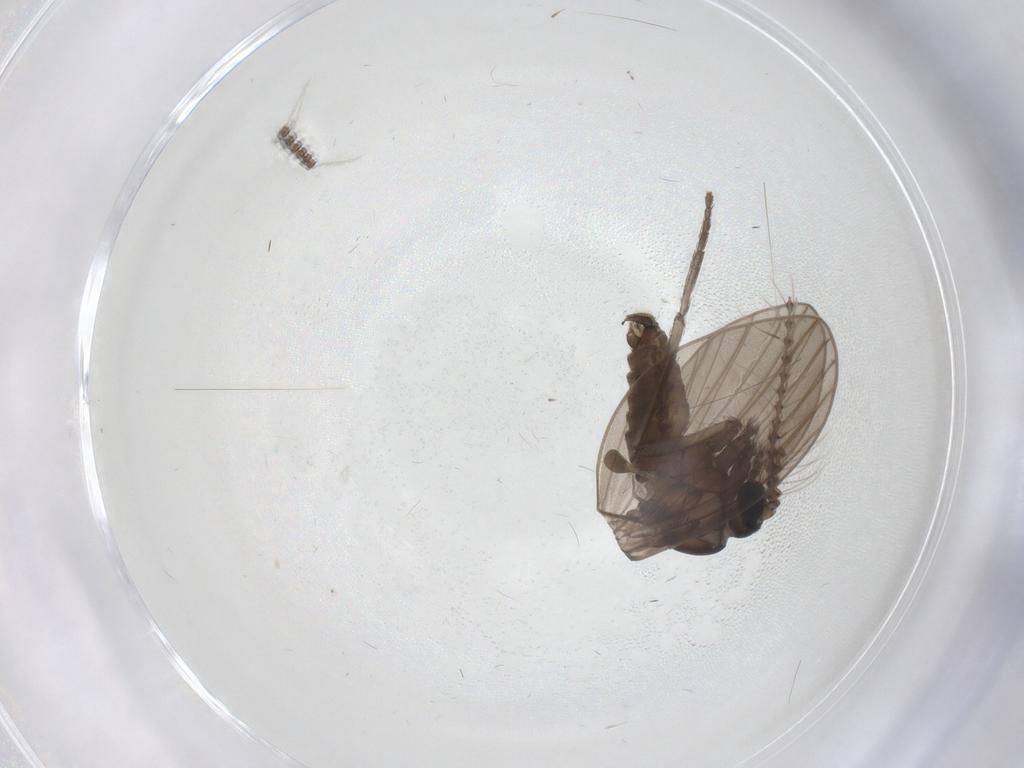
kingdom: Animalia
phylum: Arthropoda
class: Insecta
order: Diptera
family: Psychodidae
